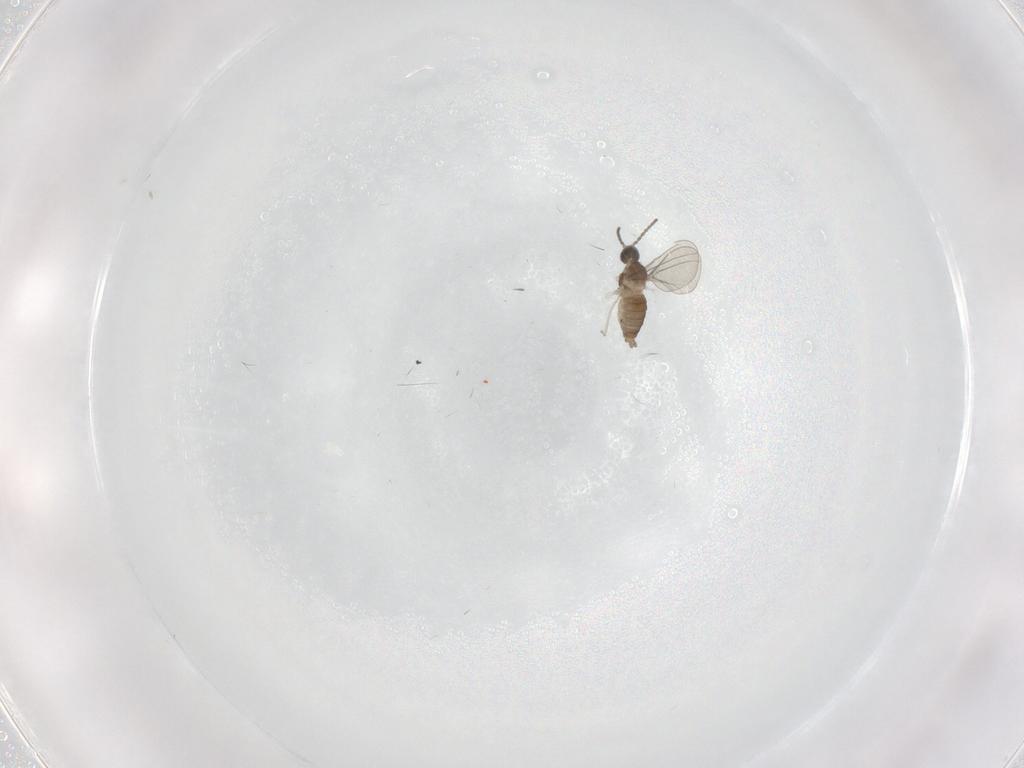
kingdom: Animalia
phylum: Arthropoda
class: Insecta
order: Diptera
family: Cecidomyiidae
